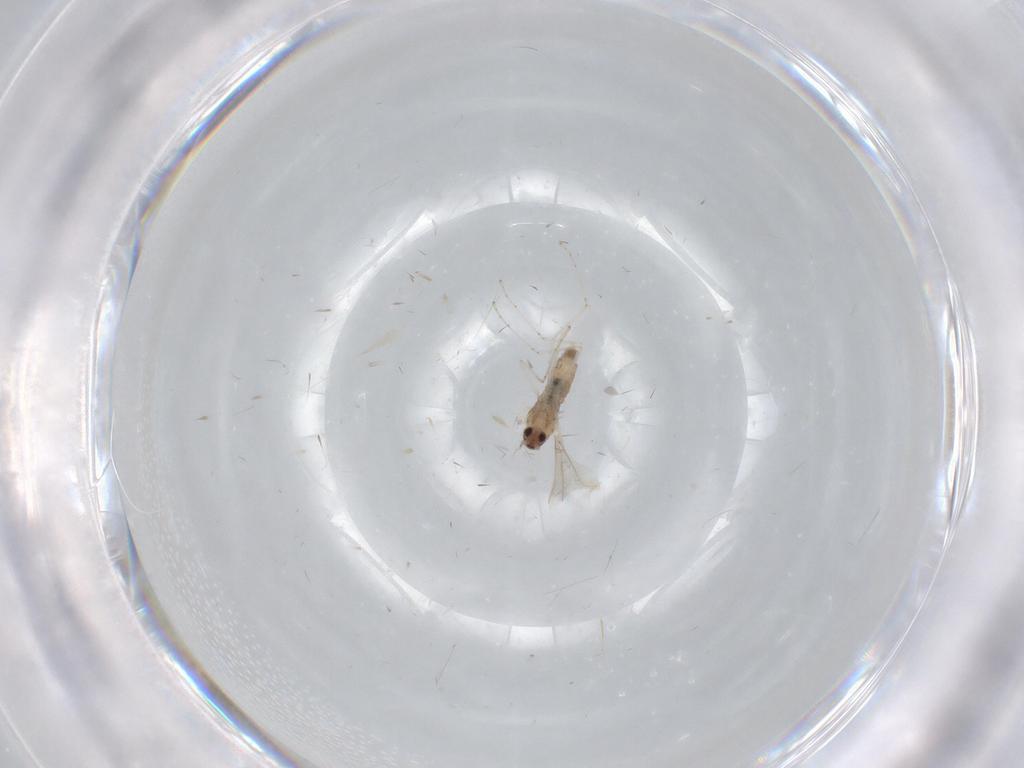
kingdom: Animalia
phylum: Arthropoda
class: Insecta
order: Diptera
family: Cecidomyiidae
